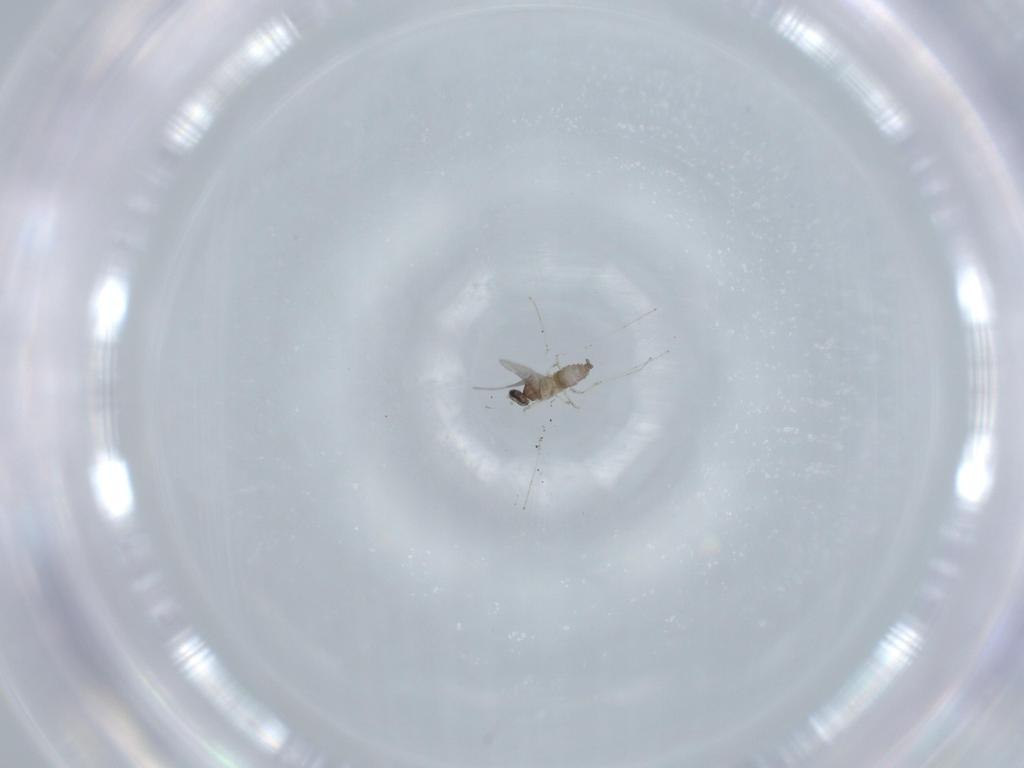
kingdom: Animalia
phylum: Arthropoda
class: Insecta
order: Diptera
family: Cecidomyiidae
